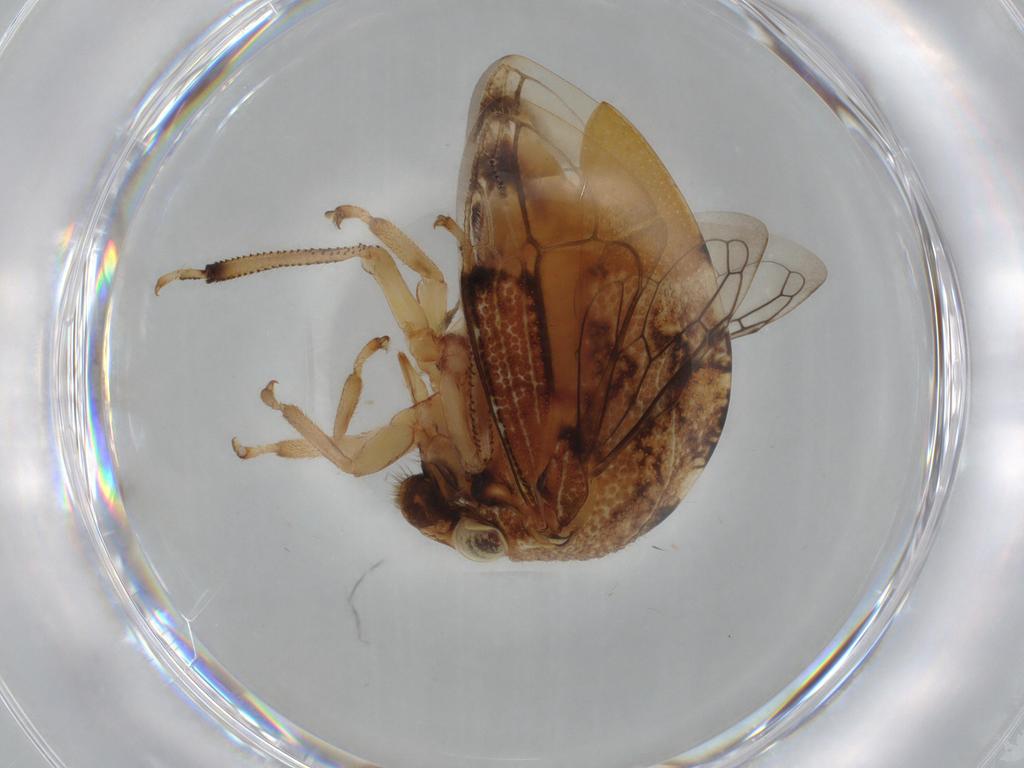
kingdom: Animalia
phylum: Arthropoda
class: Insecta
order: Hemiptera
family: Membracidae
